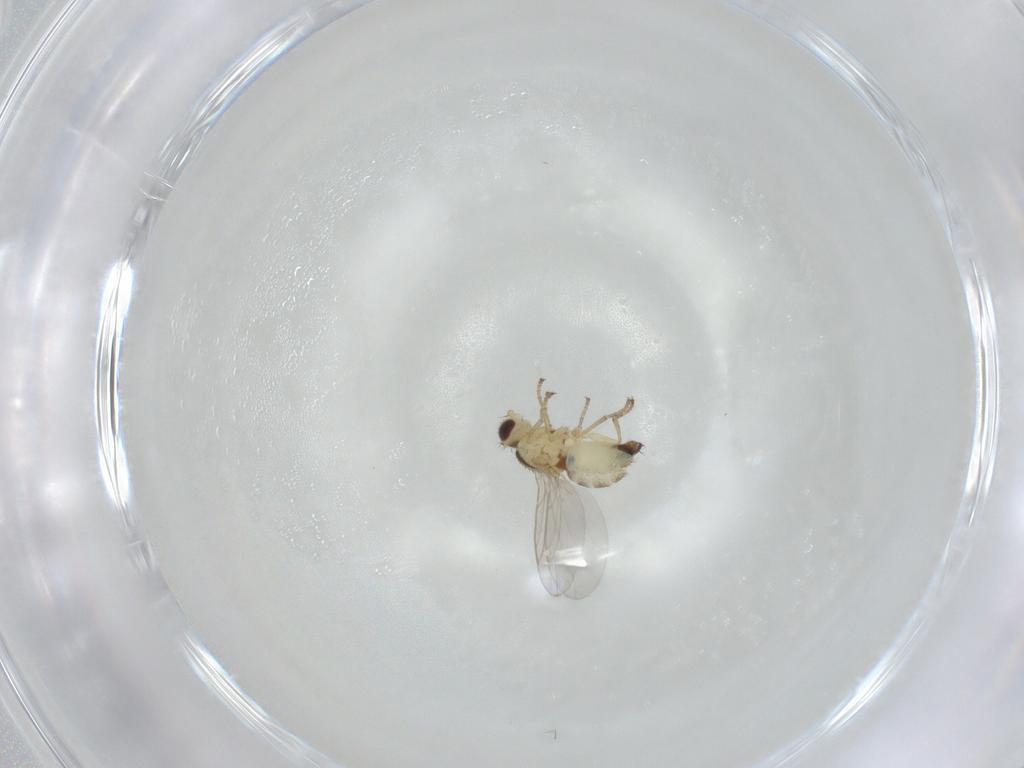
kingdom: Animalia
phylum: Arthropoda
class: Insecta
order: Diptera
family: Agromyzidae
